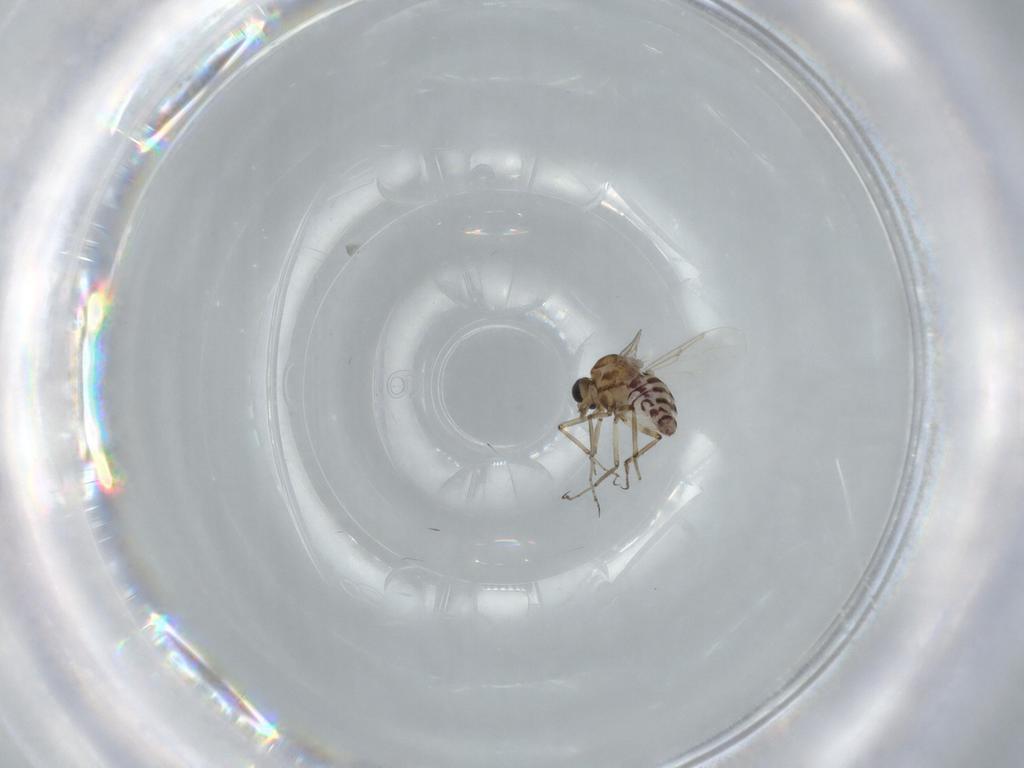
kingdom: Animalia
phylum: Arthropoda
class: Insecta
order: Diptera
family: Ceratopogonidae
